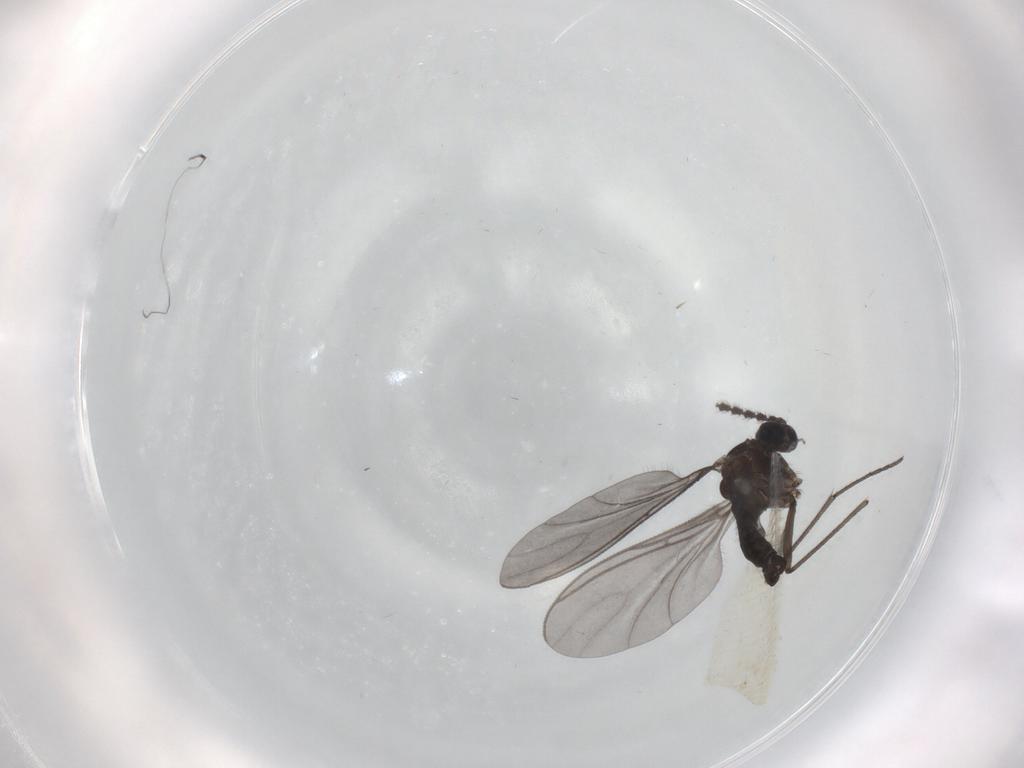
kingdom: Animalia
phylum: Arthropoda
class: Insecta
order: Diptera
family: Sciaridae
